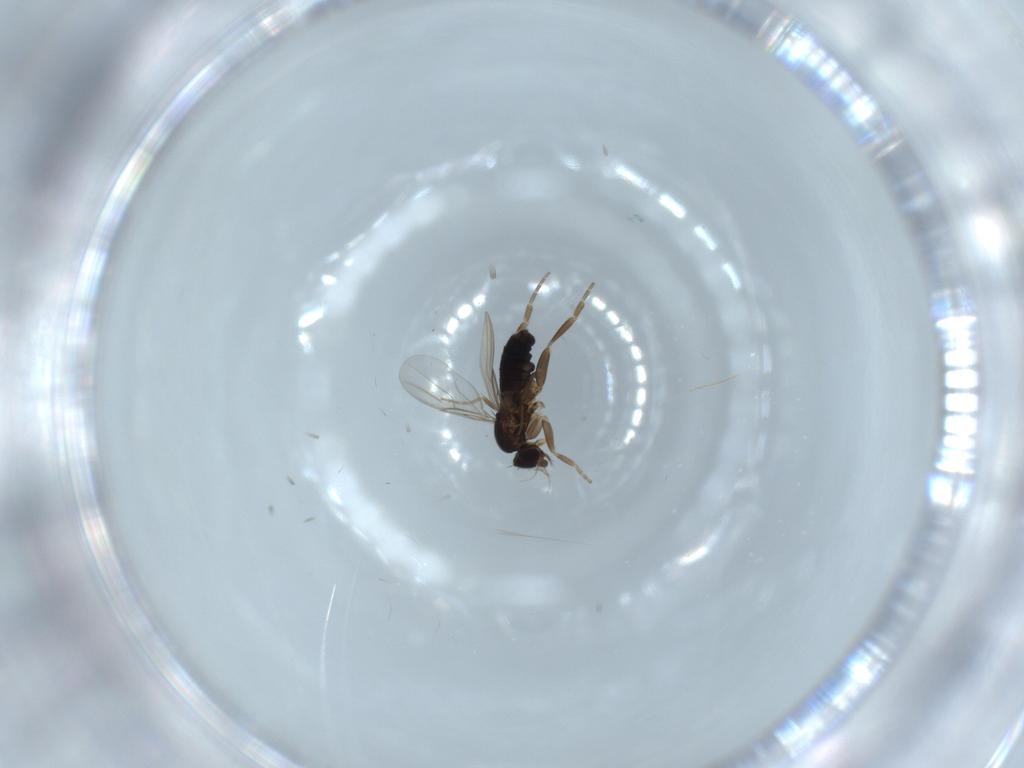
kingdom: Animalia
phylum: Arthropoda
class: Insecta
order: Diptera
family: Phoridae
